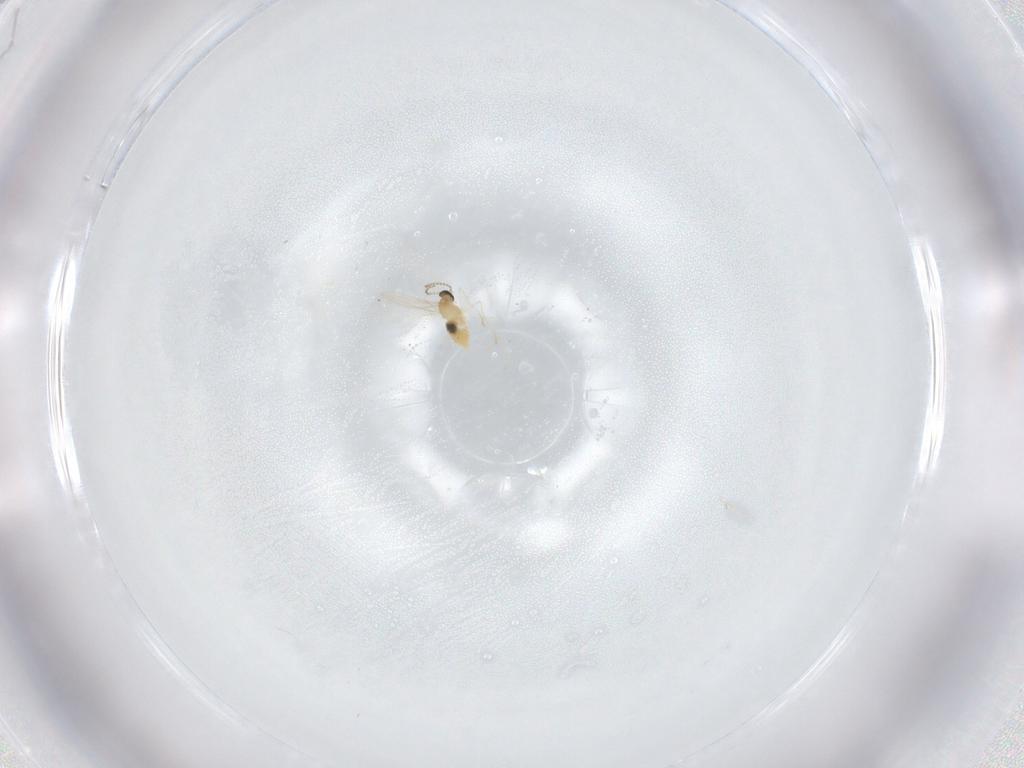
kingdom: Animalia
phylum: Arthropoda
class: Insecta
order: Diptera
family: Cecidomyiidae
